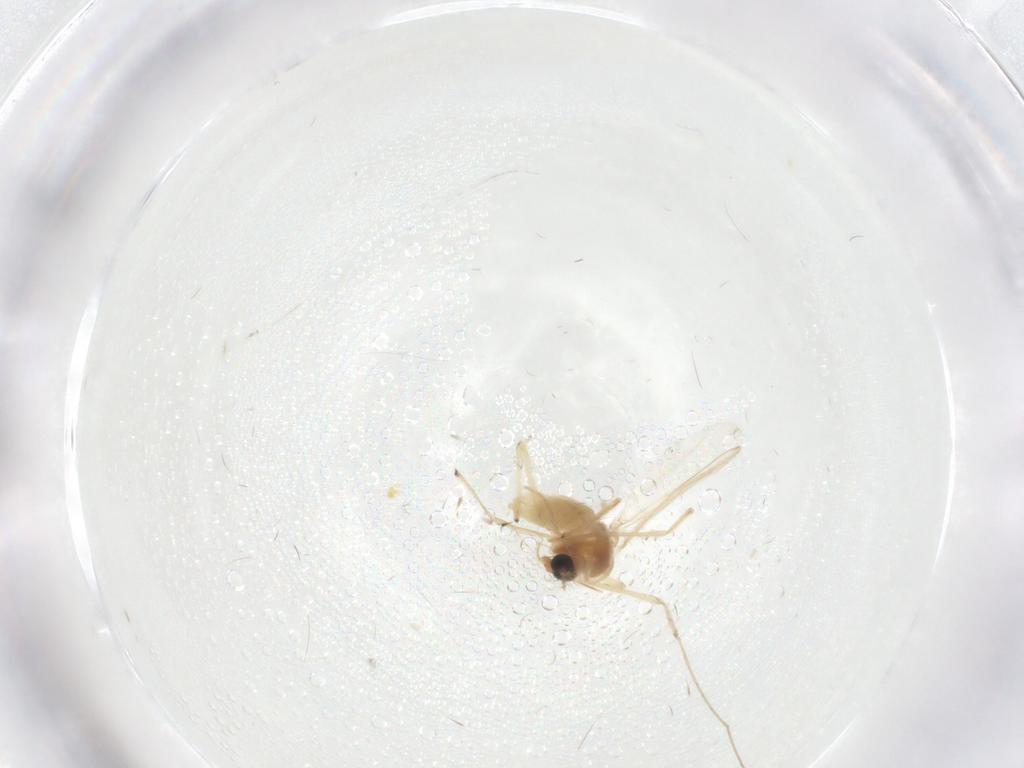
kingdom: Animalia
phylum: Arthropoda
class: Insecta
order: Diptera
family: Chironomidae
